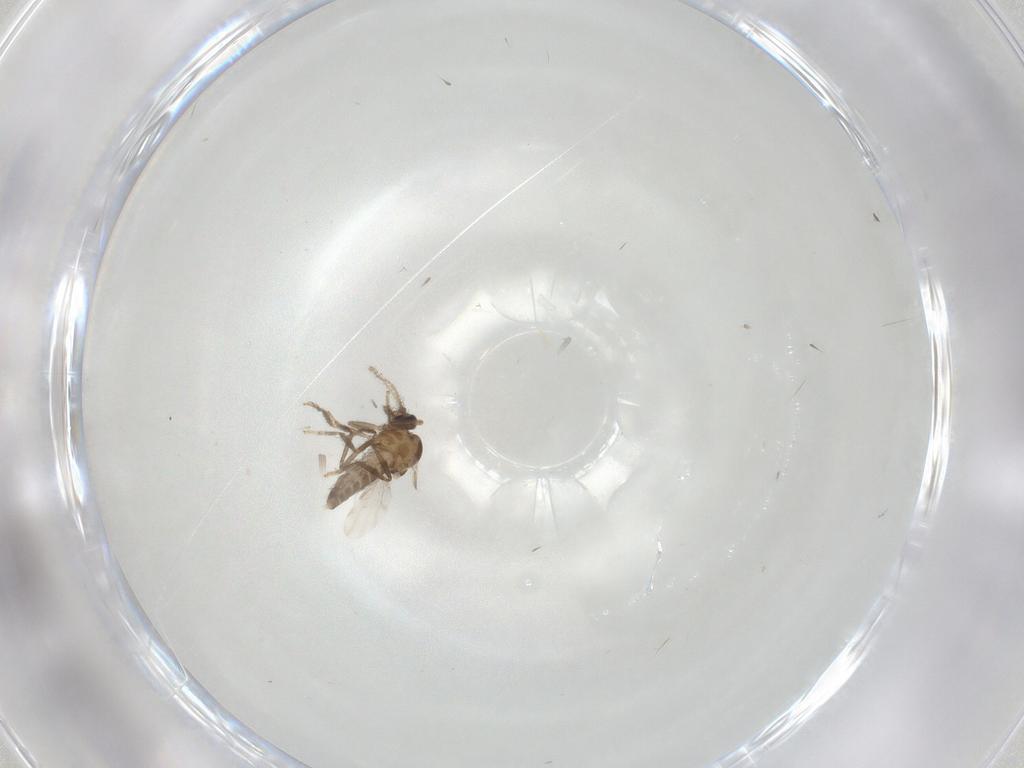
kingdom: Animalia
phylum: Arthropoda
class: Insecta
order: Diptera
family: Ceratopogonidae
